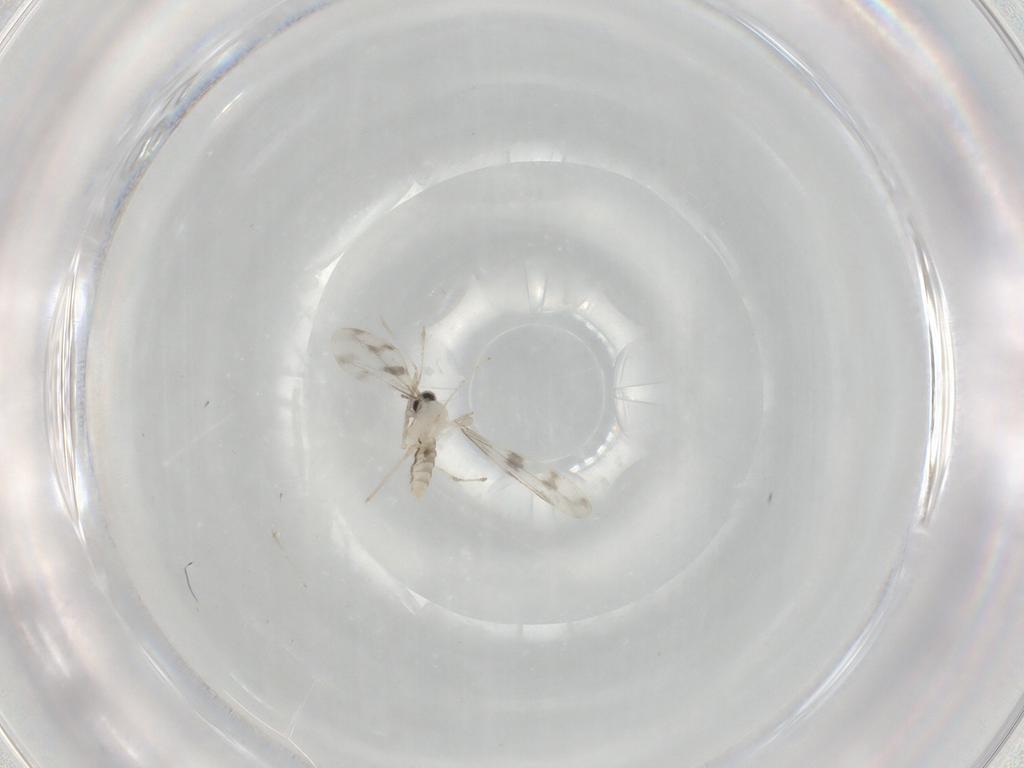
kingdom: Animalia
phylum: Arthropoda
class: Insecta
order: Diptera
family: Cecidomyiidae
